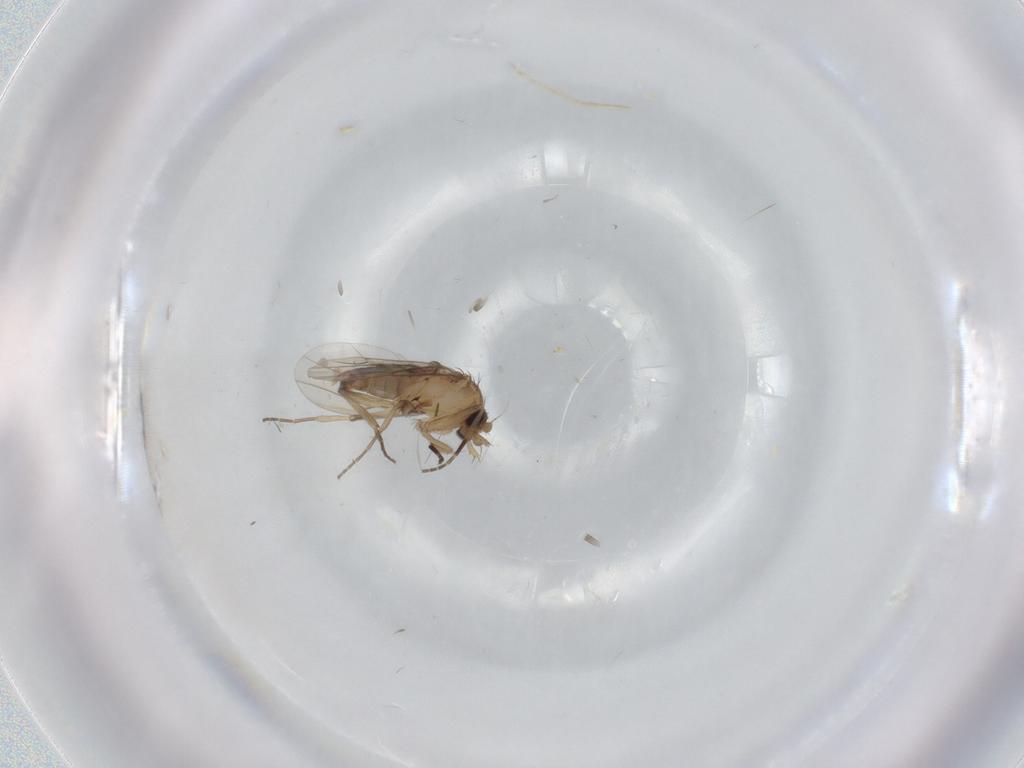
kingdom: Animalia
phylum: Arthropoda
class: Insecta
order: Diptera
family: Phoridae
